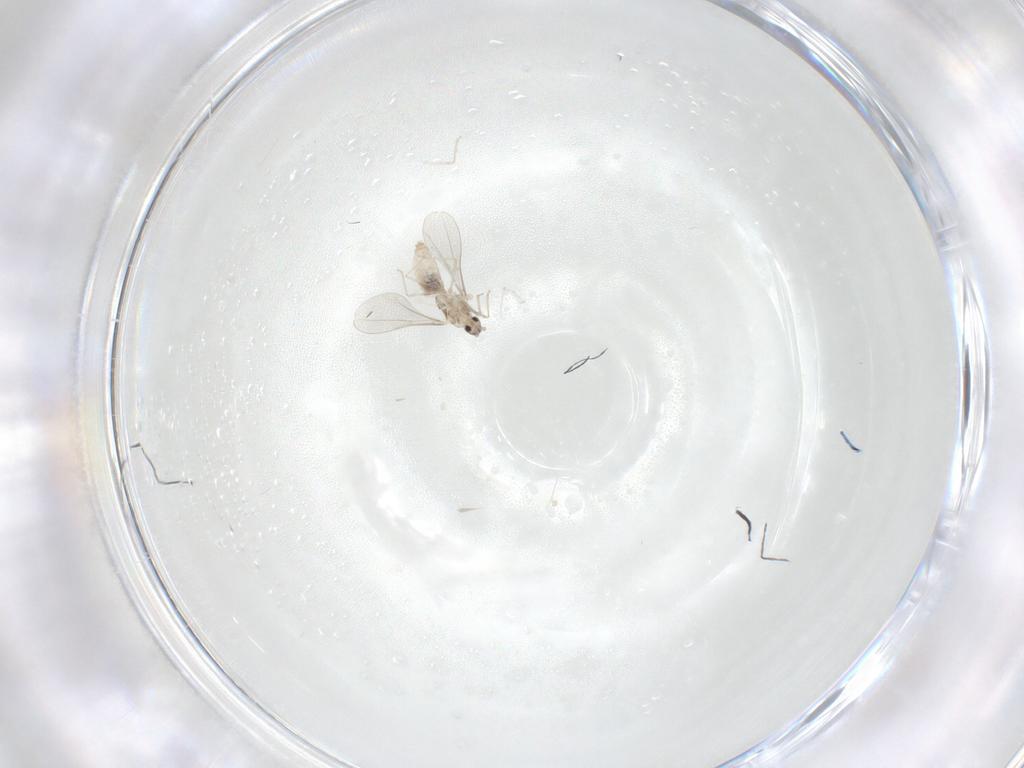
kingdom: Animalia
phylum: Arthropoda
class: Insecta
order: Diptera
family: Cecidomyiidae
